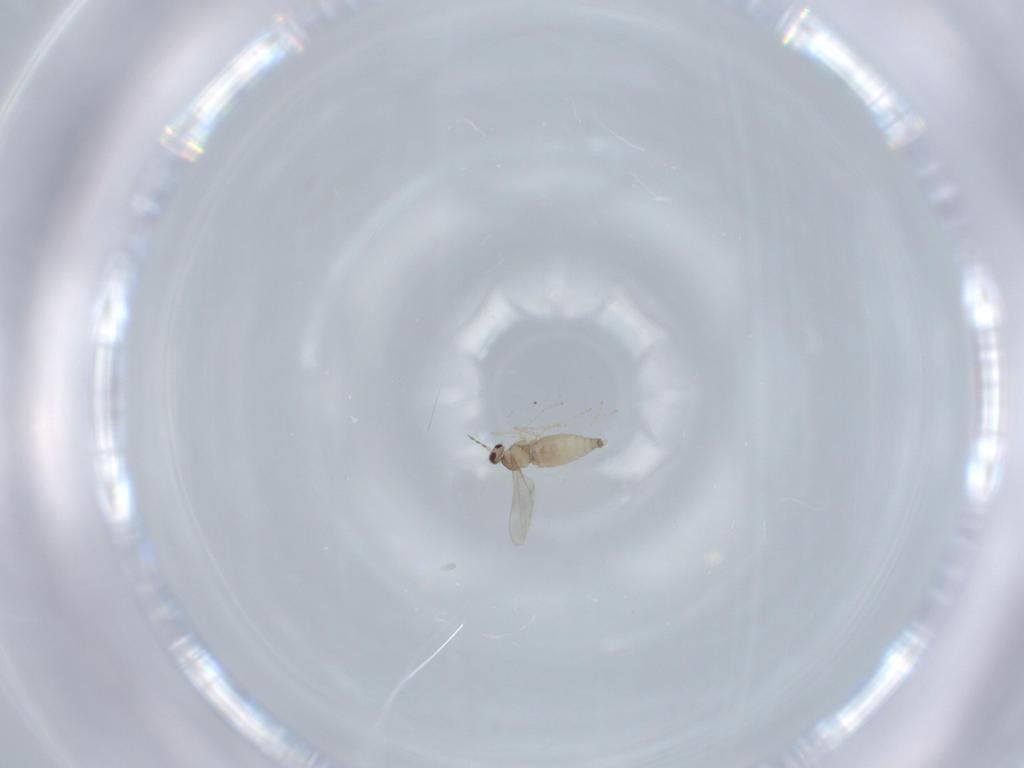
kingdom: Animalia
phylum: Arthropoda
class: Insecta
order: Diptera
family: Cecidomyiidae
